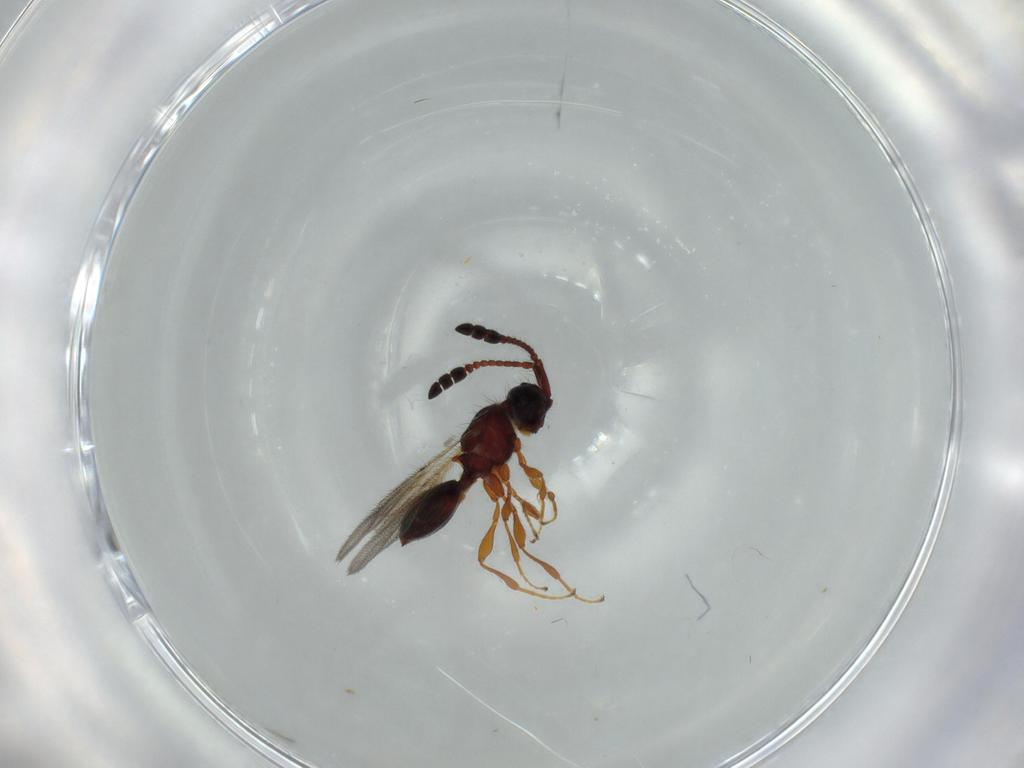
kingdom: Animalia
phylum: Arthropoda
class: Insecta
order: Hymenoptera
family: Diapriidae
